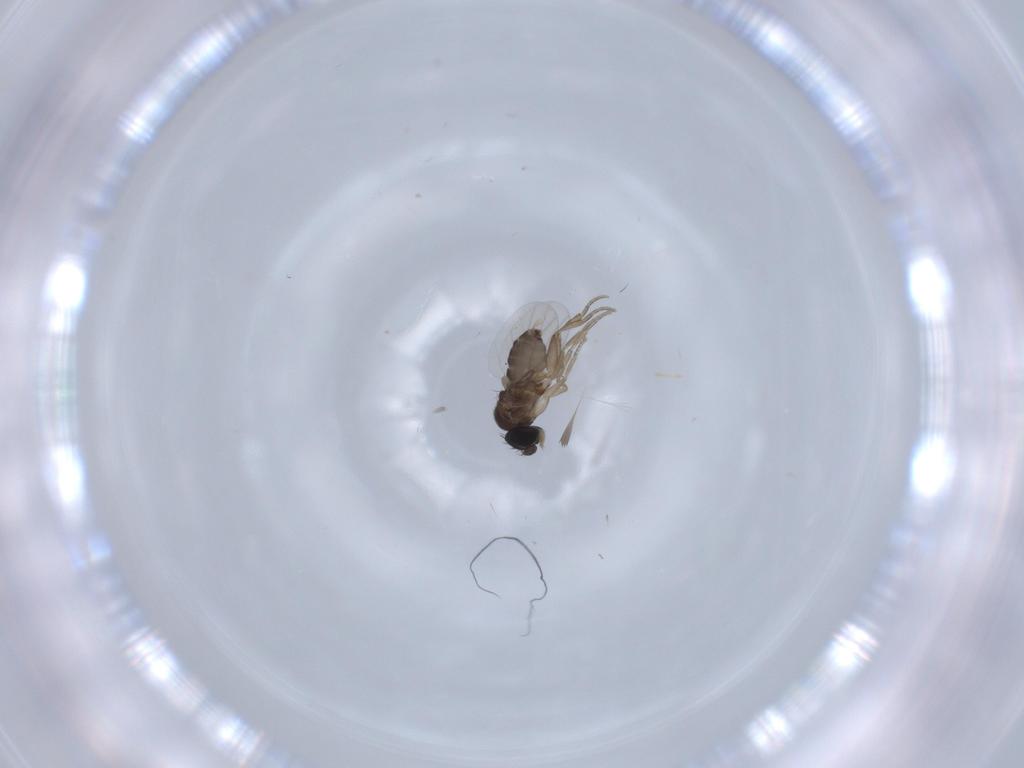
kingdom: Animalia
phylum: Arthropoda
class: Insecta
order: Diptera
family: Phoridae
